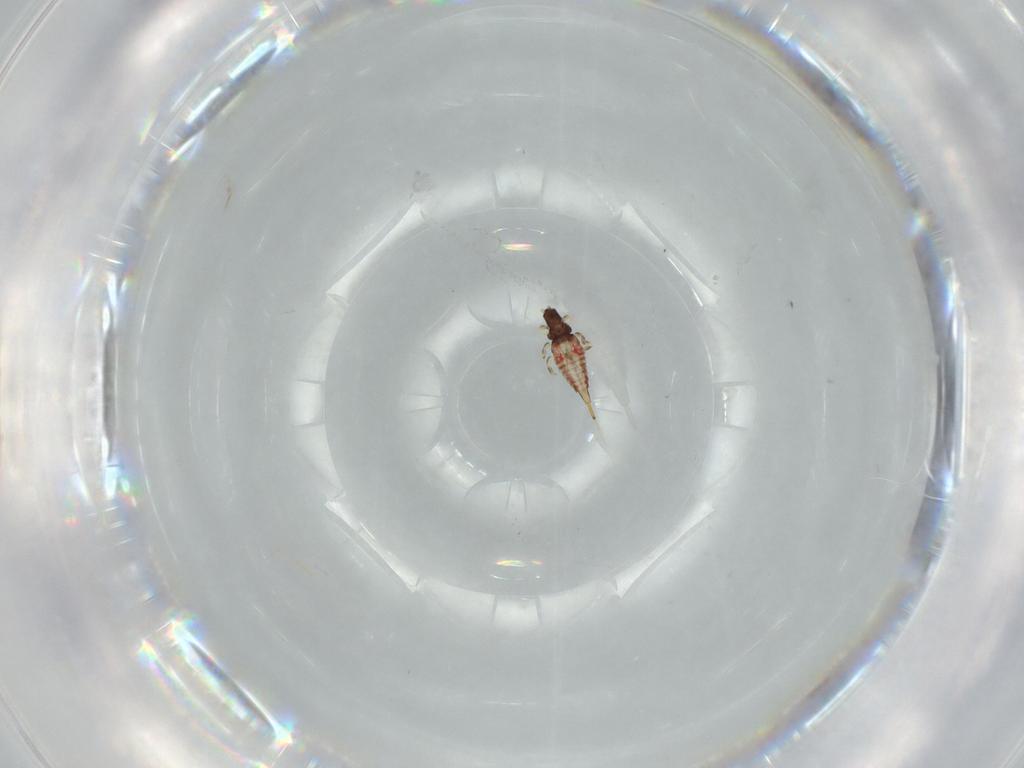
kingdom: Animalia
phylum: Arthropoda
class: Insecta
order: Thysanoptera
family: Phlaeothripidae
